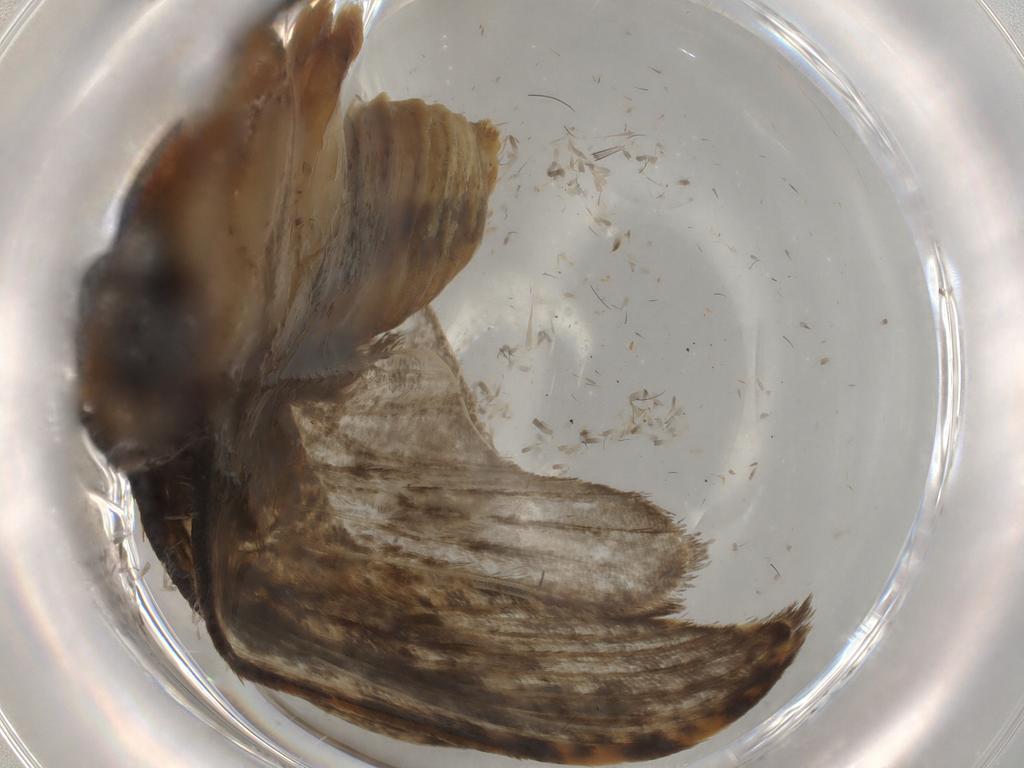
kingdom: Animalia
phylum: Arthropoda
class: Insecta
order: Lepidoptera
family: Tineidae
